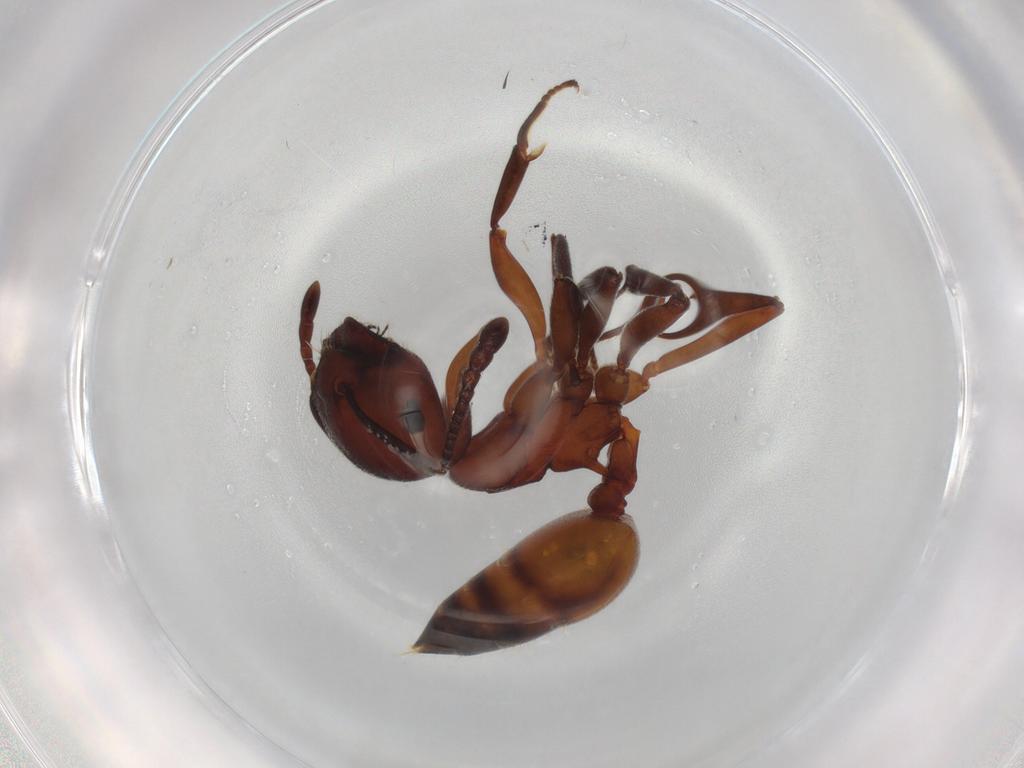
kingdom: Animalia
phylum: Arthropoda
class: Insecta
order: Hymenoptera
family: Formicidae
